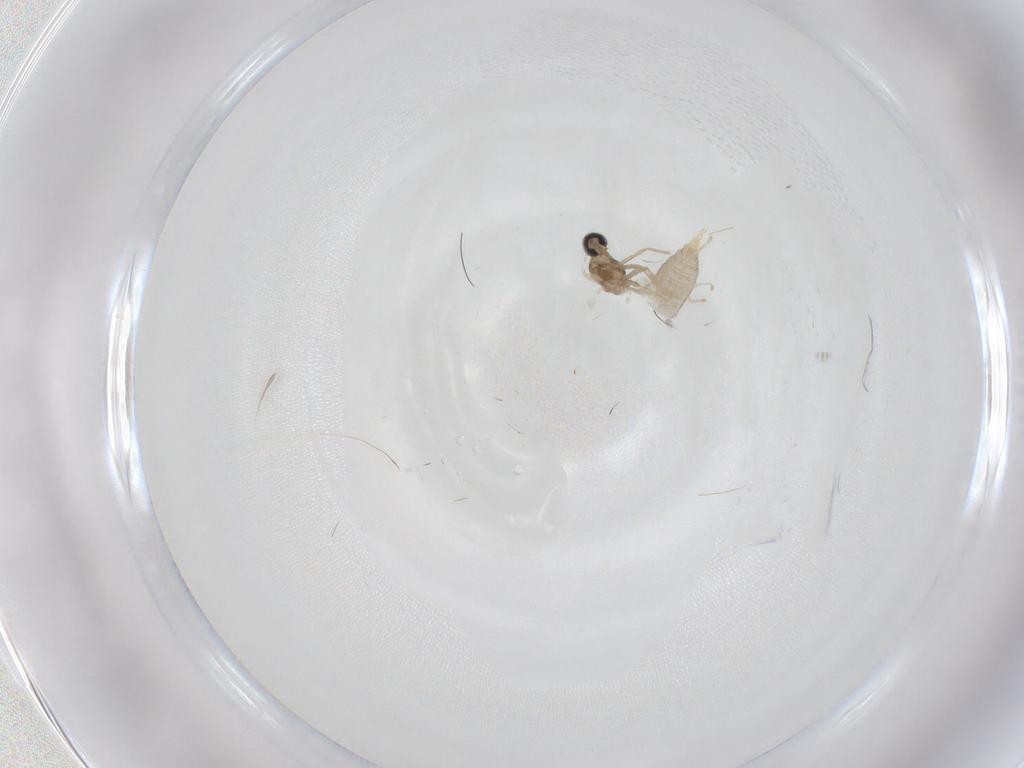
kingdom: Animalia
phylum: Arthropoda
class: Insecta
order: Diptera
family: Cecidomyiidae
